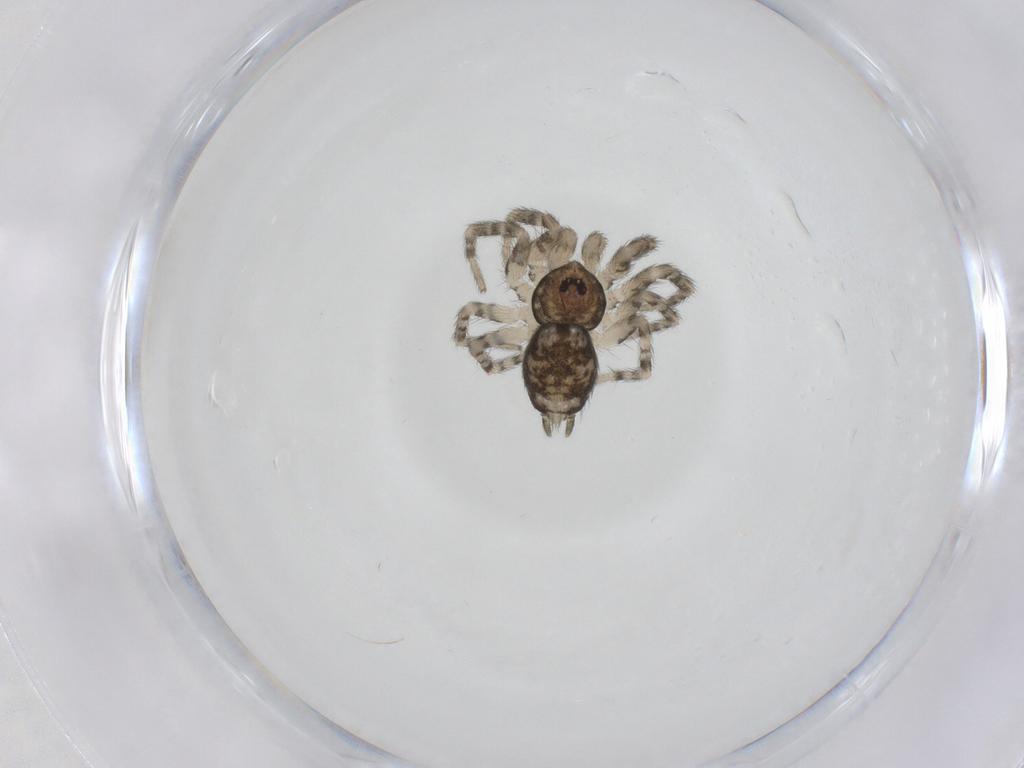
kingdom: Animalia
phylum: Arthropoda
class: Arachnida
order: Araneae
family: Oecobiidae
